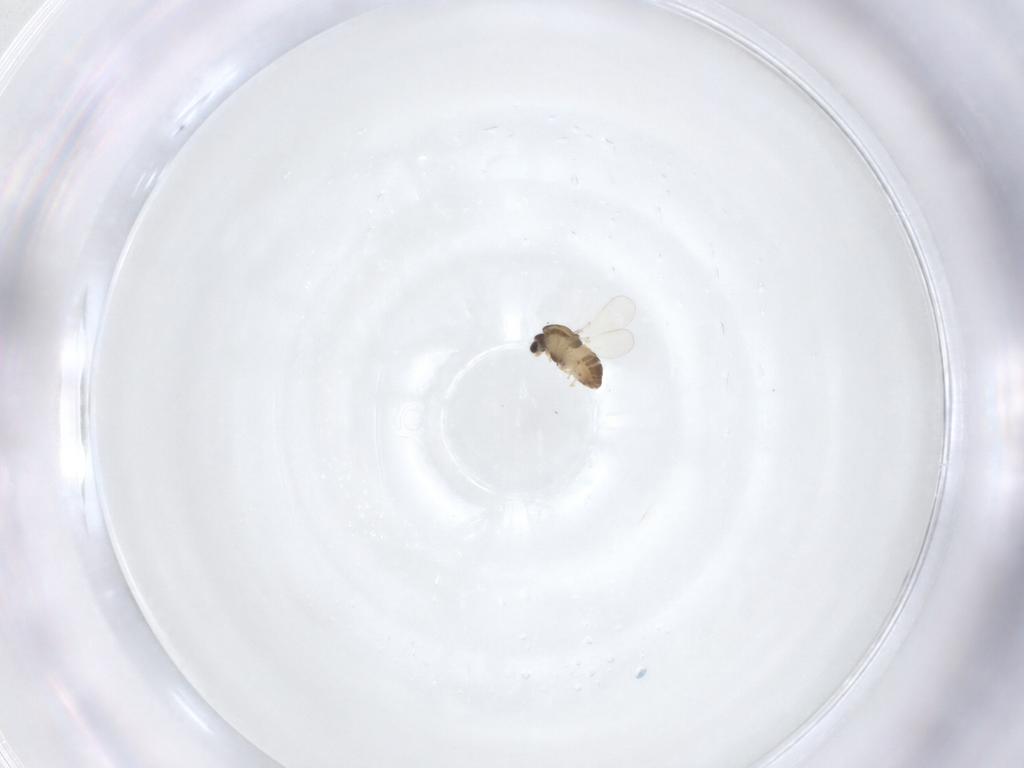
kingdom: Animalia
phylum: Arthropoda
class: Insecta
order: Diptera
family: Chironomidae
